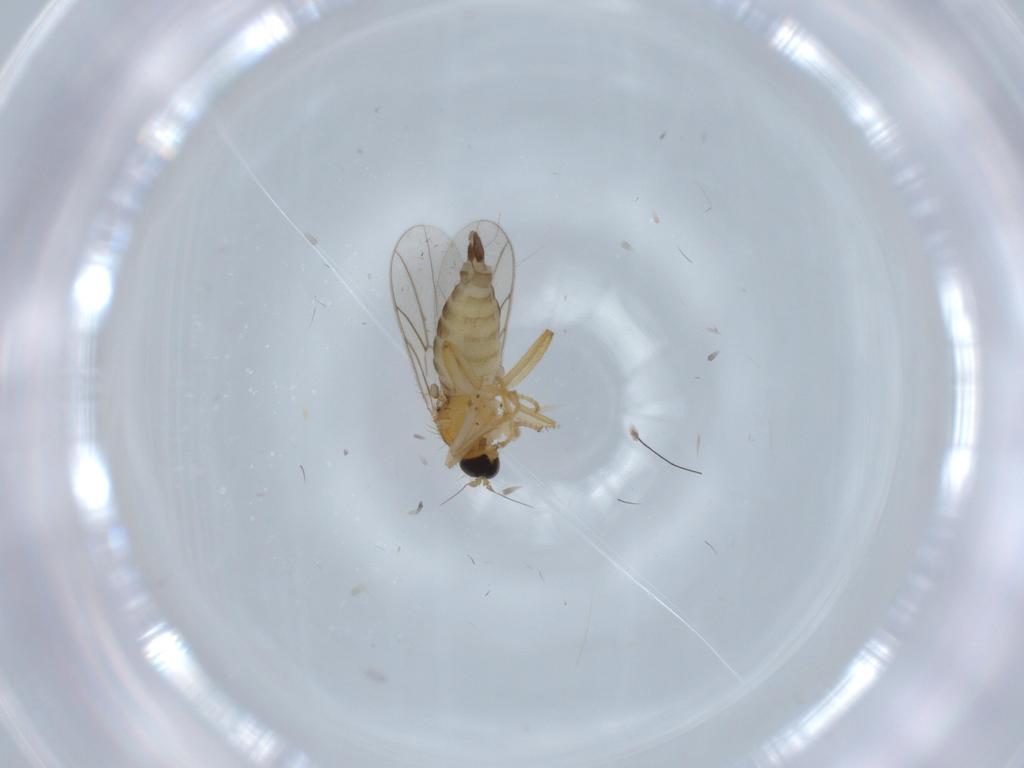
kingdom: Animalia
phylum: Arthropoda
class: Insecta
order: Diptera
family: Hybotidae
